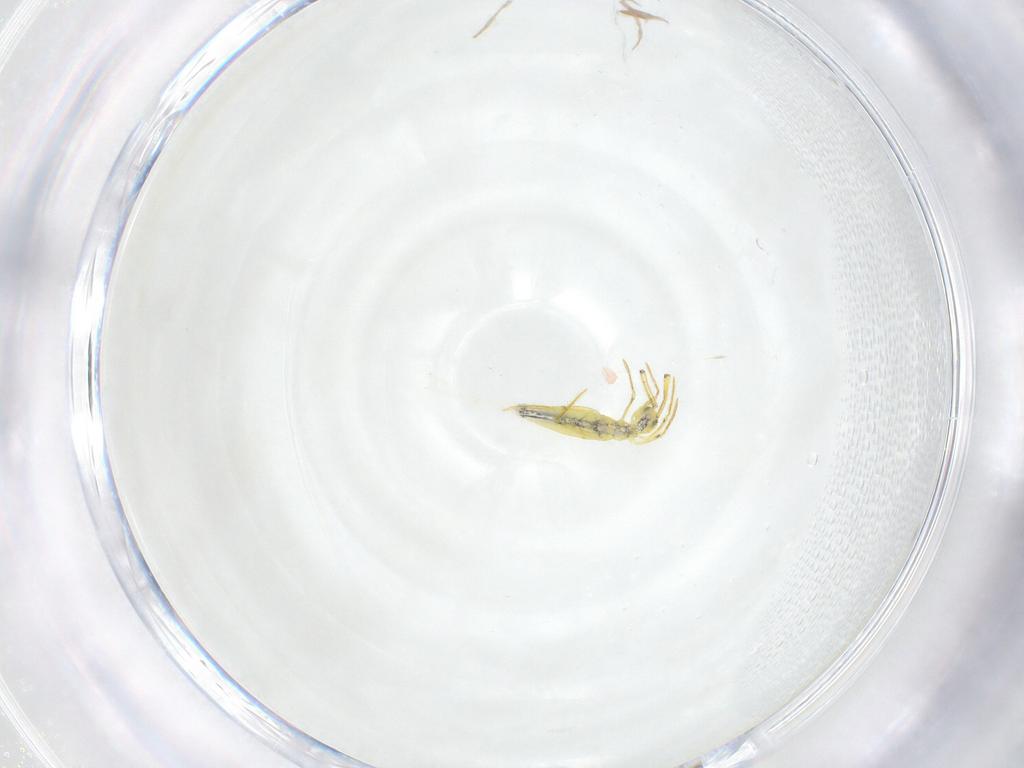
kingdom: Animalia
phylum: Arthropoda
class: Collembola
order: Entomobryomorpha
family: Entomobryidae
